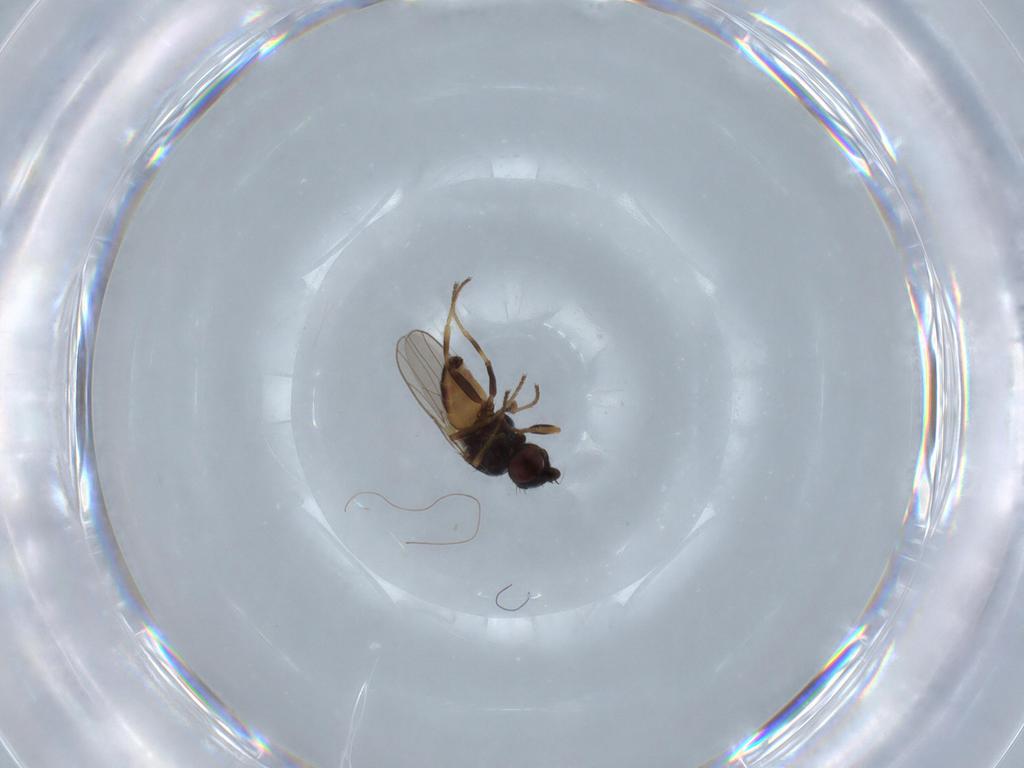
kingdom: Animalia
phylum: Arthropoda
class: Insecta
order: Diptera
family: Chloropidae
